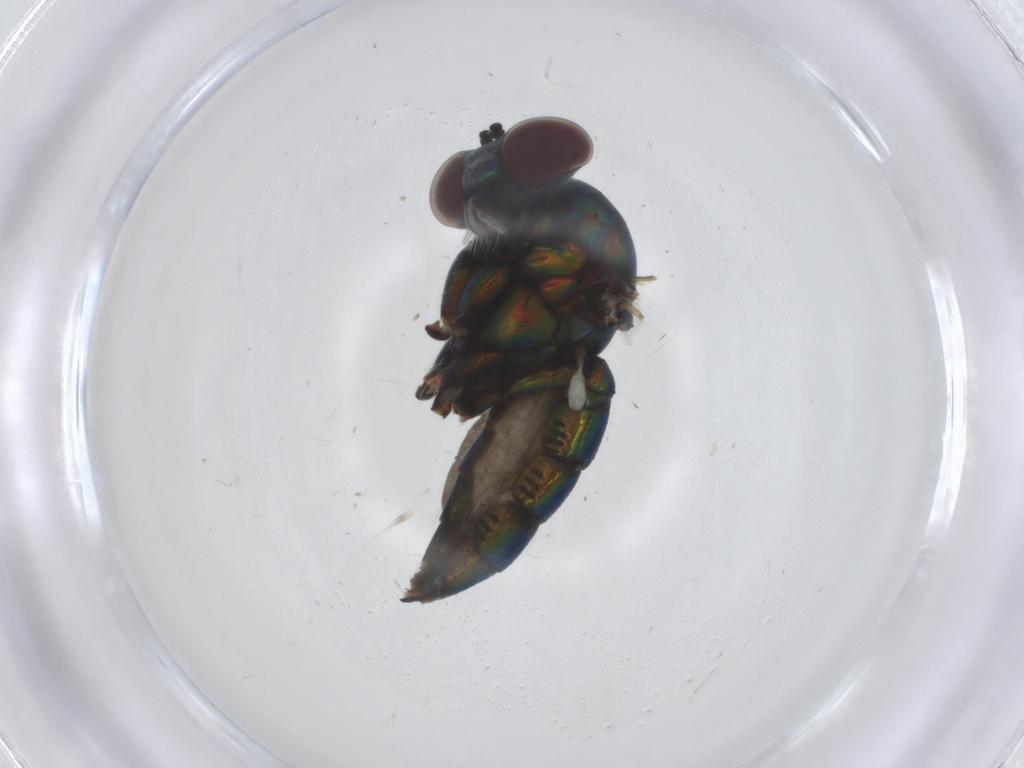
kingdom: Animalia
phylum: Arthropoda
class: Insecta
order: Diptera
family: Dolichopodidae
